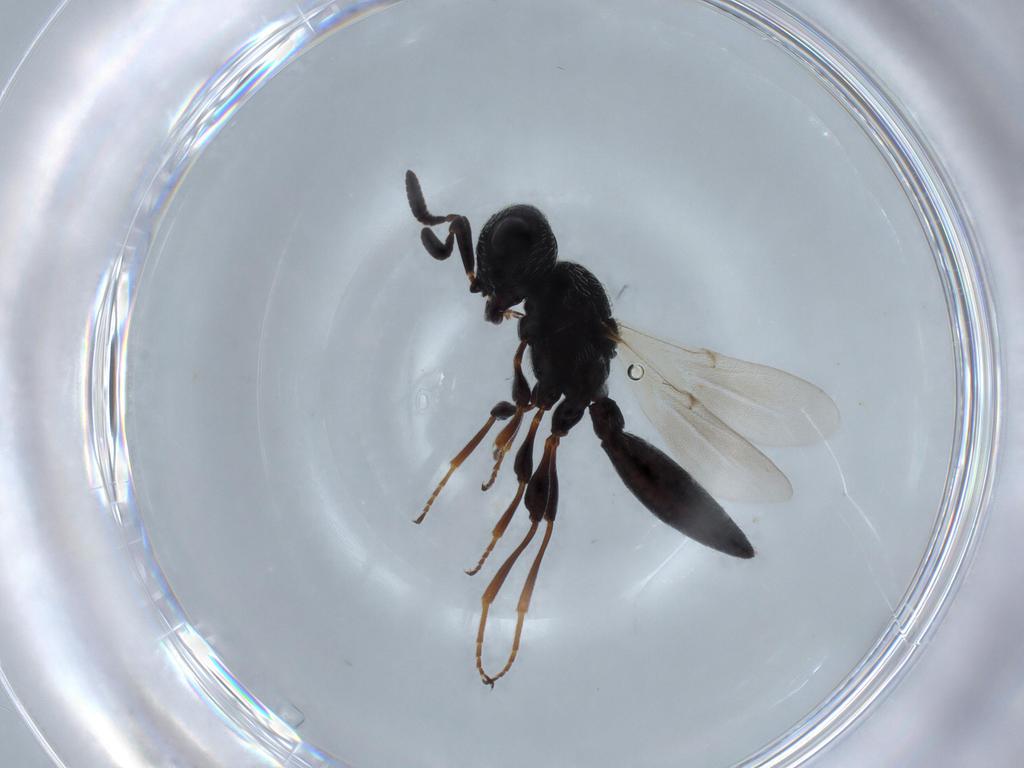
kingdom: Animalia
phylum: Arthropoda
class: Insecta
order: Hymenoptera
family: Scelionidae
